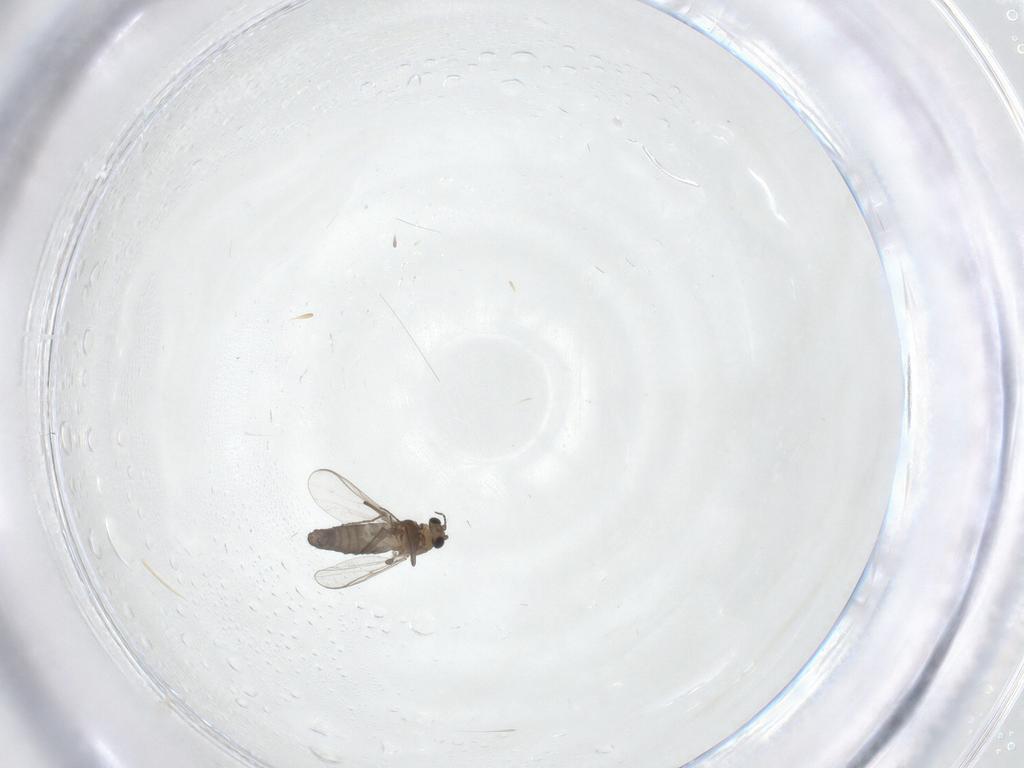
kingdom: Animalia
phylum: Arthropoda
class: Insecta
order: Diptera
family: Chironomidae
